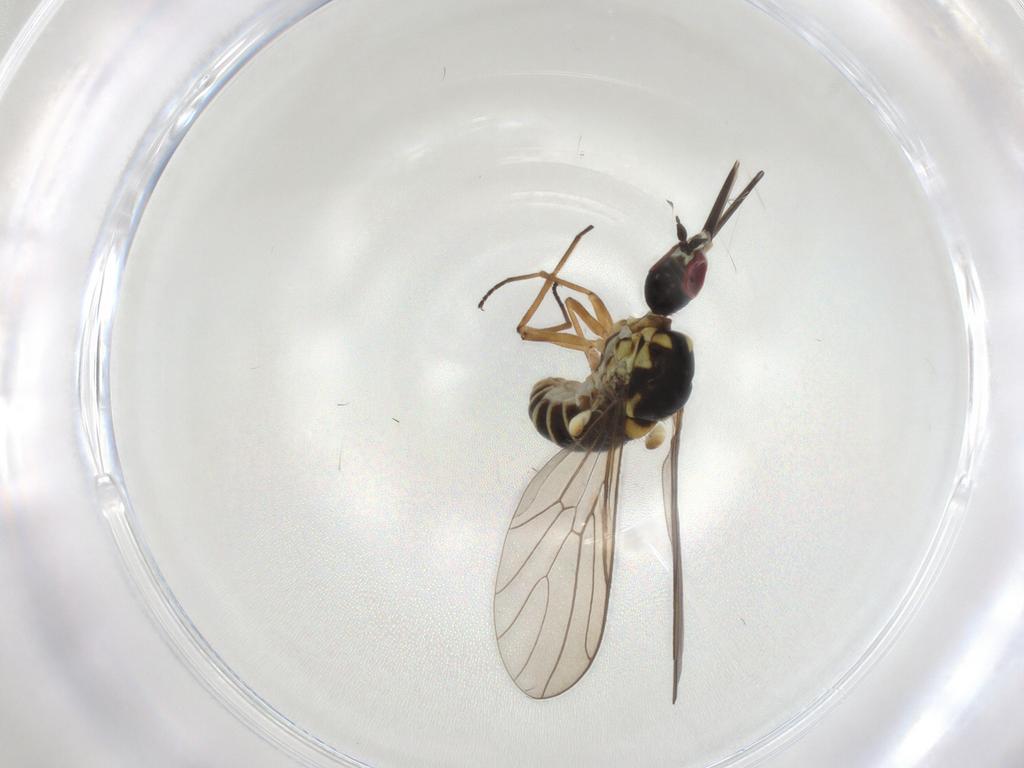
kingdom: Animalia
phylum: Arthropoda
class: Insecta
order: Diptera
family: Bombyliidae
